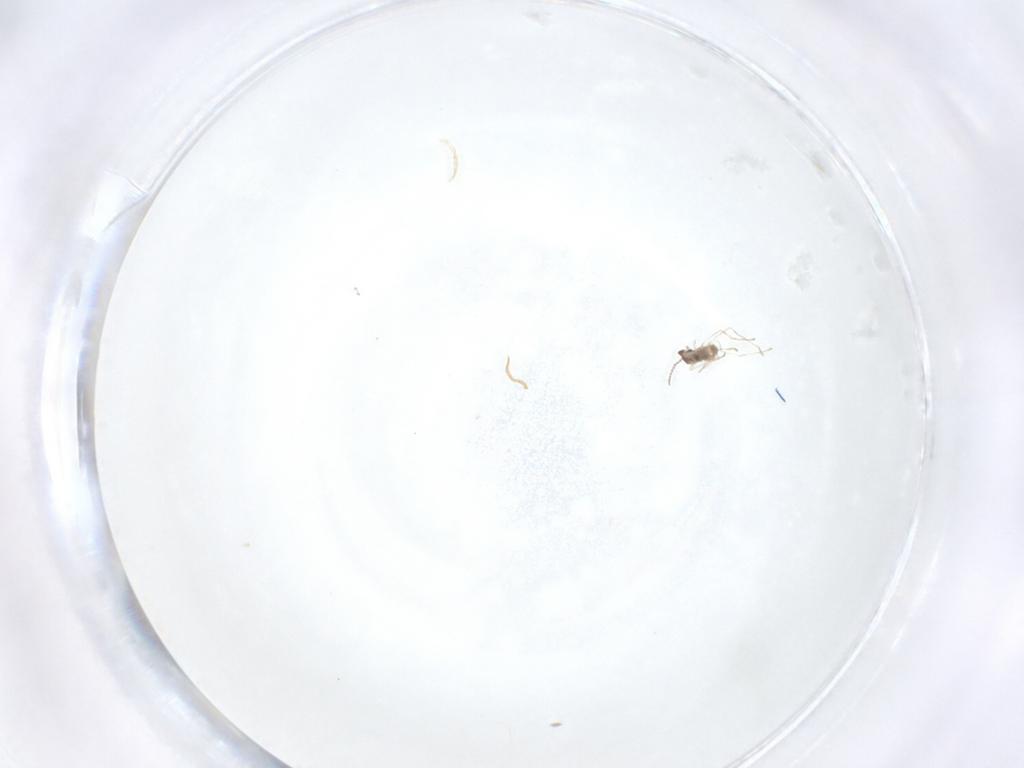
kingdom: Animalia
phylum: Arthropoda
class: Insecta
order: Diptera
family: Cecidomyiidae
